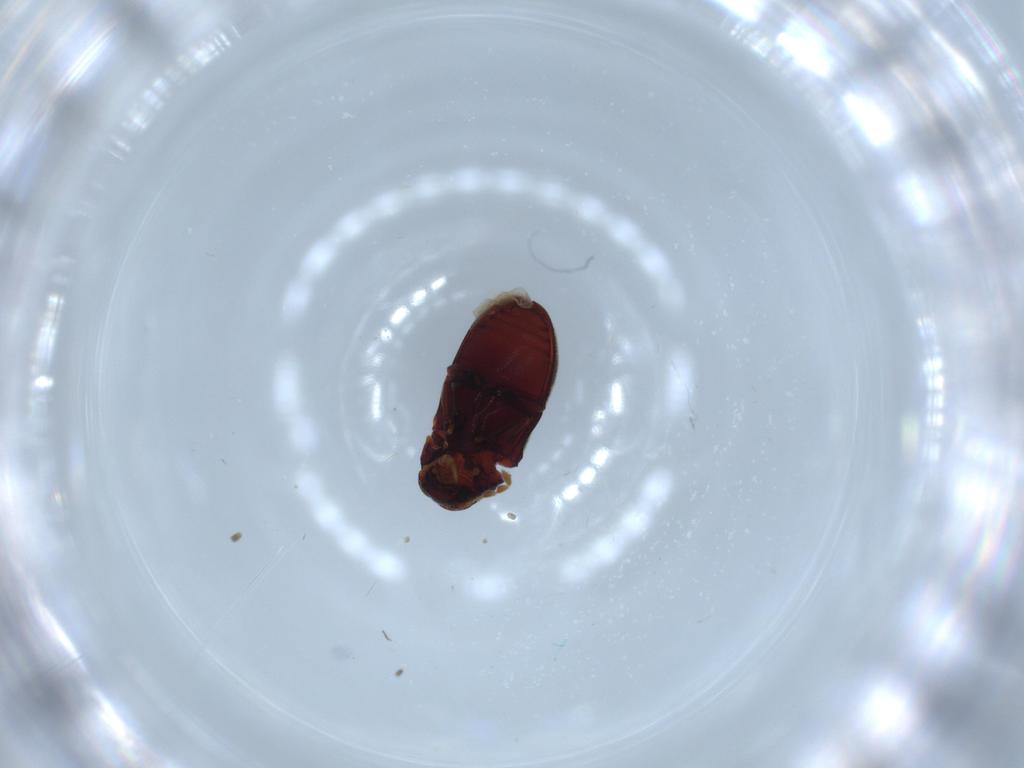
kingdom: Animalia
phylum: Arthropoda
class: Insecta
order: Coleoptera
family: Ptinidae
